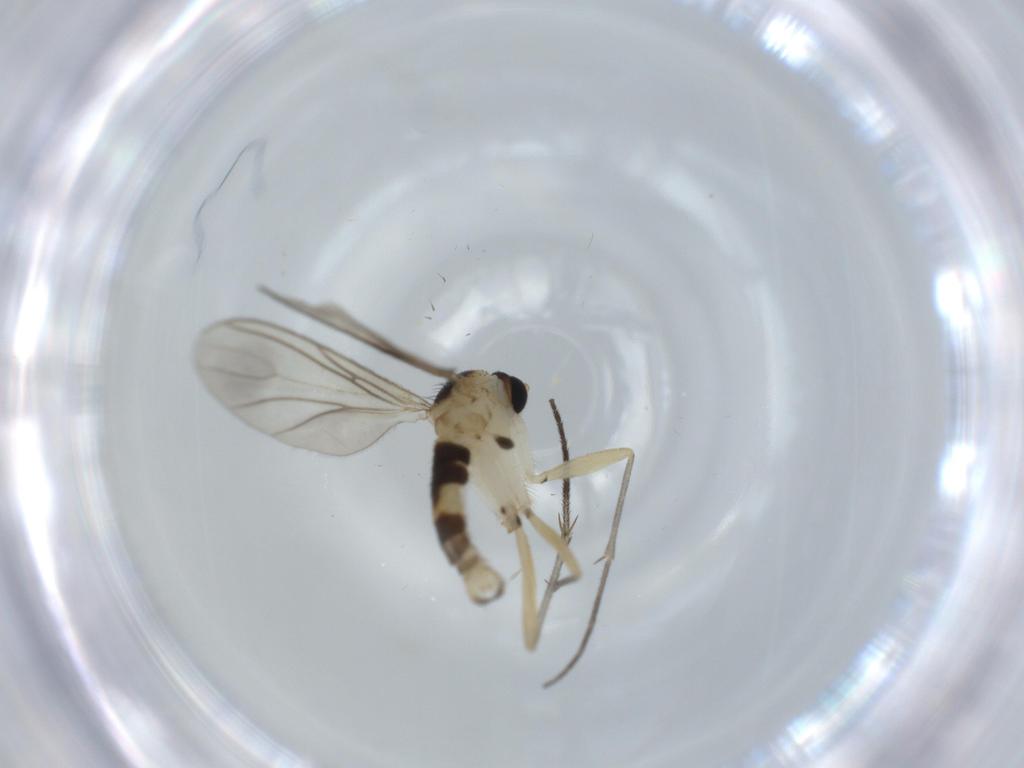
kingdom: Animalia
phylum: Arthropoda
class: Insecta
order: Diptera
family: Sciaridae
